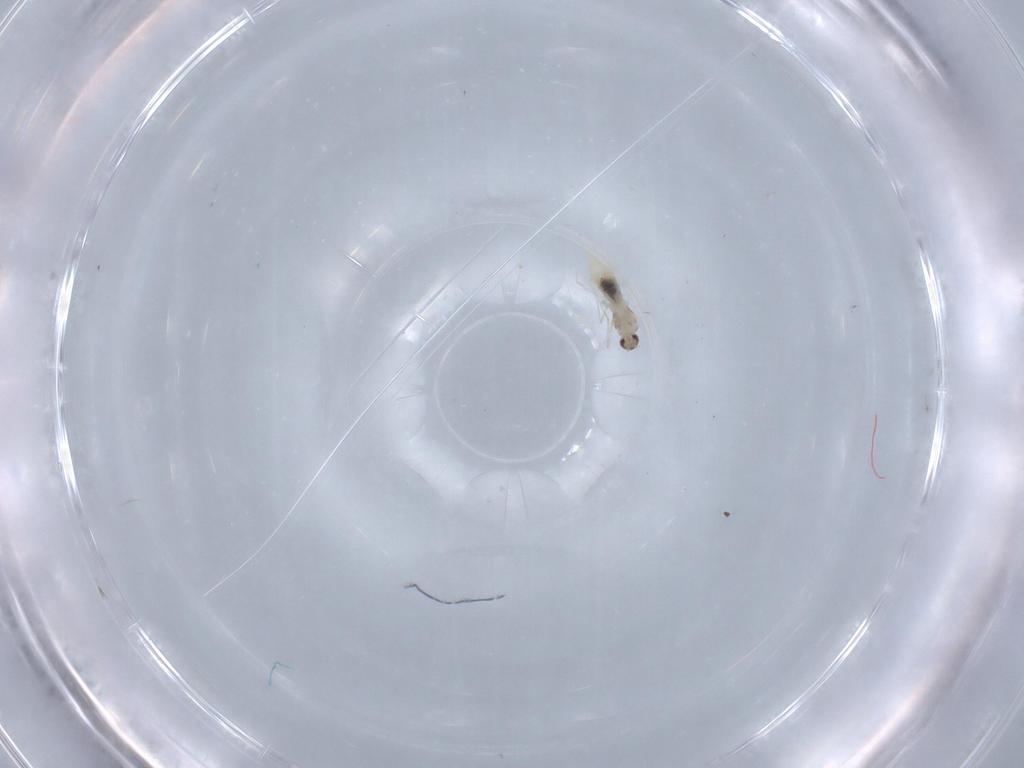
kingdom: Animalia
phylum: Arthropoda
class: Insecta
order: Diptera
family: Cecidomyiidae
